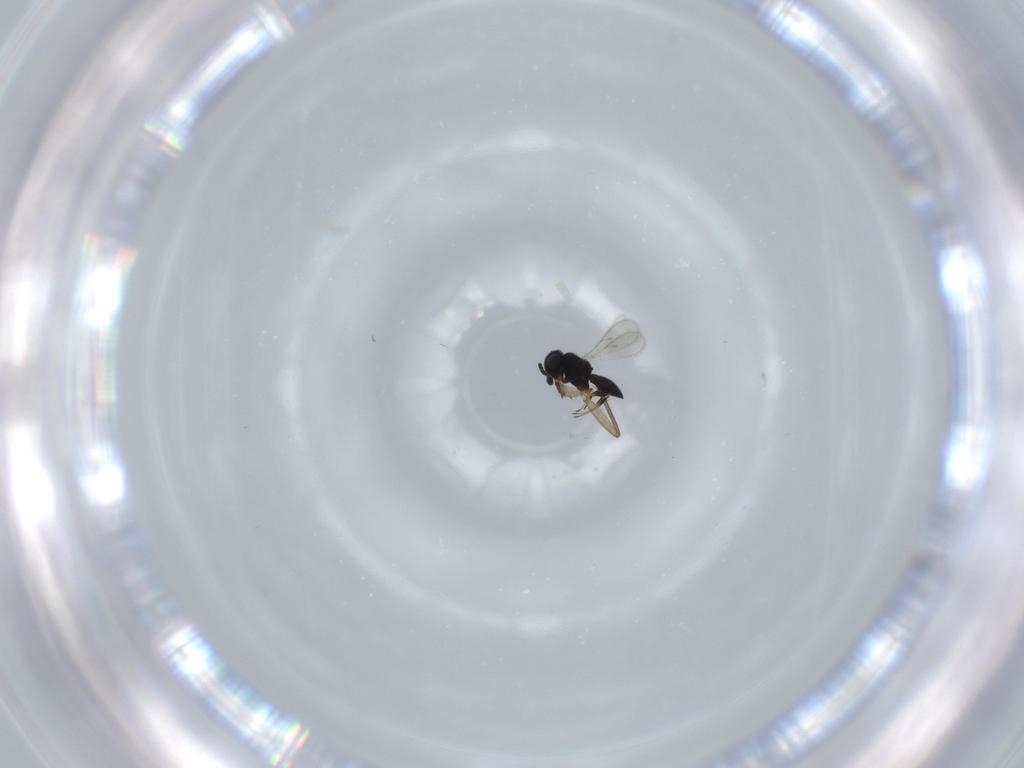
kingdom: Animalia
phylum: Arthropoda
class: Insecta
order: Hymenoptera
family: Scelionidae
